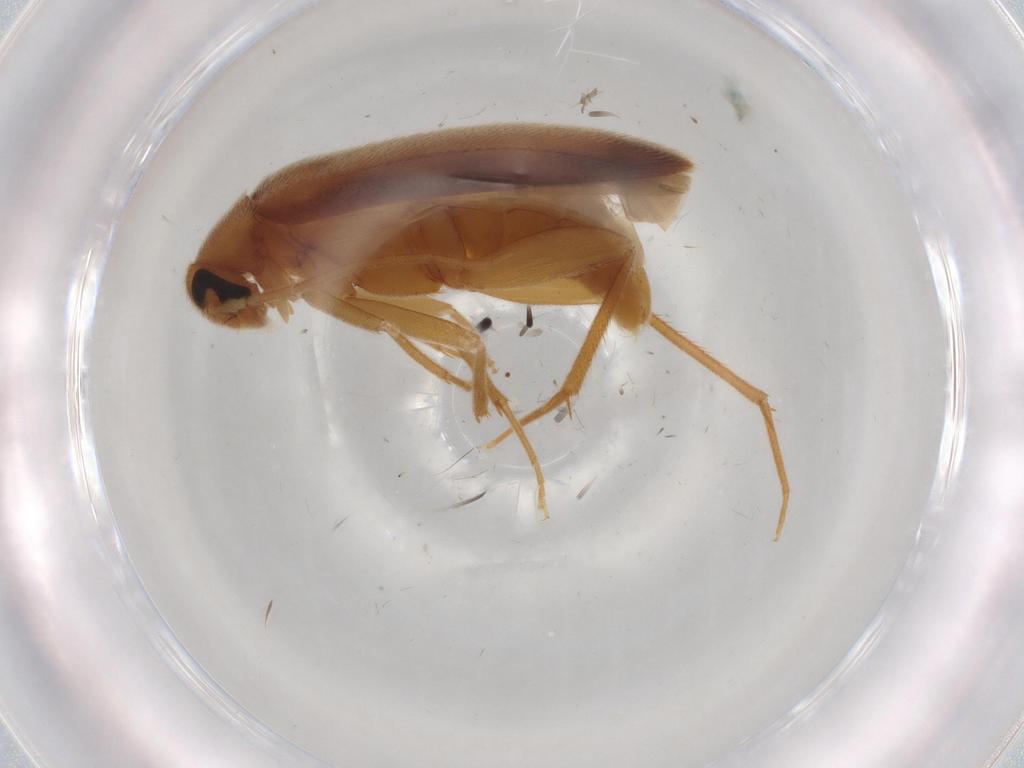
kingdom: Animalia
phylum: Arthropoda
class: Insecta
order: Coleoptera
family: Scraptiidae
